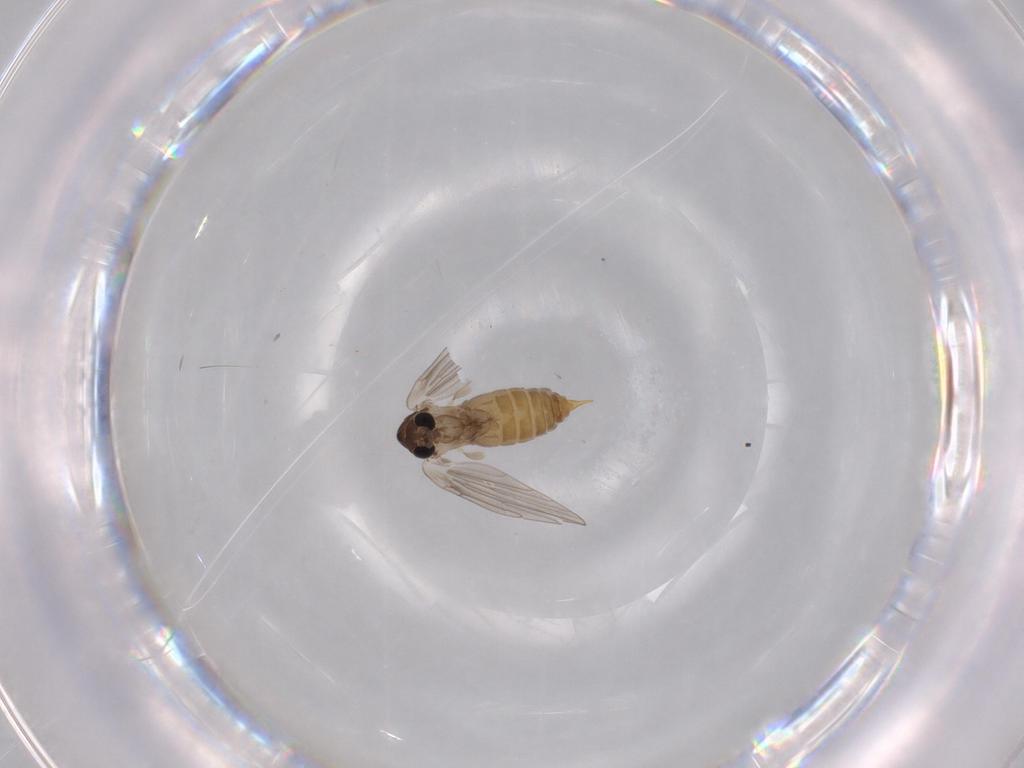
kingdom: Animalia
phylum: Arthropoda
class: Insecta
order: Diptera
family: Psychodidae
